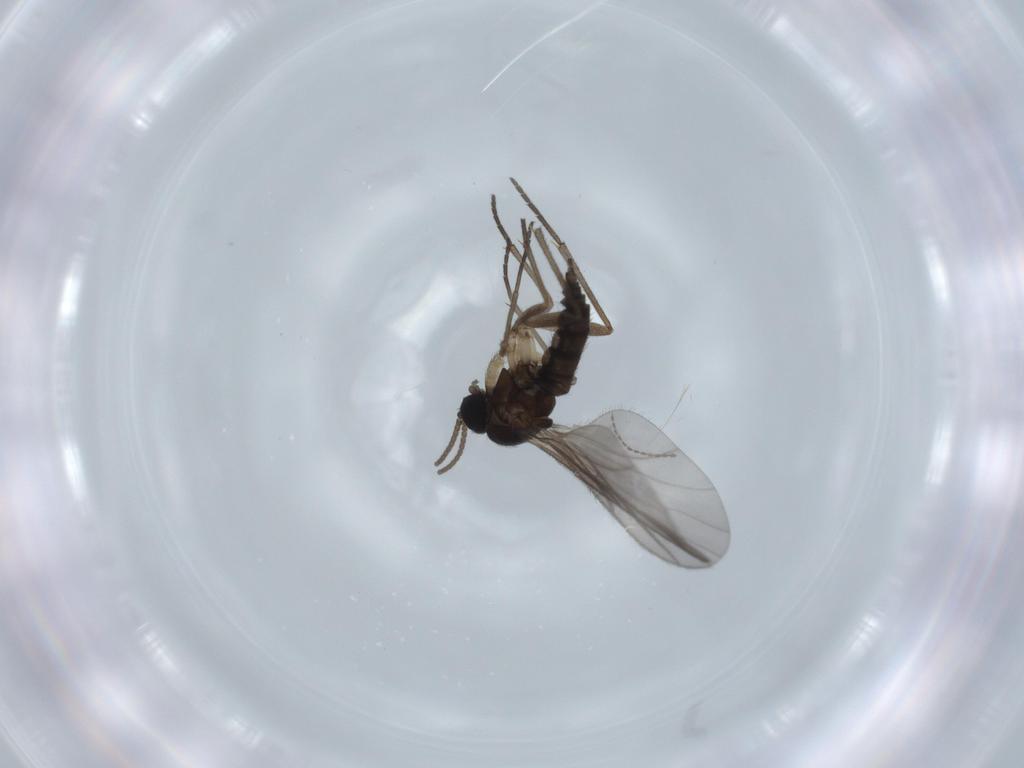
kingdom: Animalia
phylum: Arthropoda
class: Insecta
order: Diptera
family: Sciaridae
